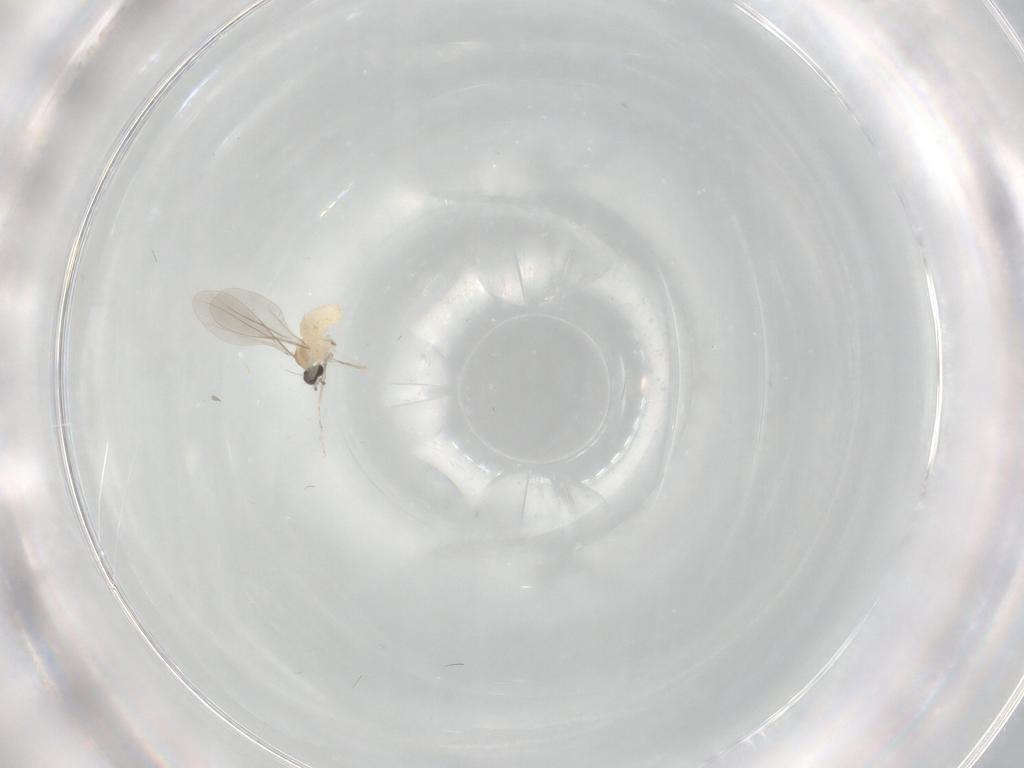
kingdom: Animalia
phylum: Arthropoda
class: Insecta
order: Diptera
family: Cecidomyiidae
